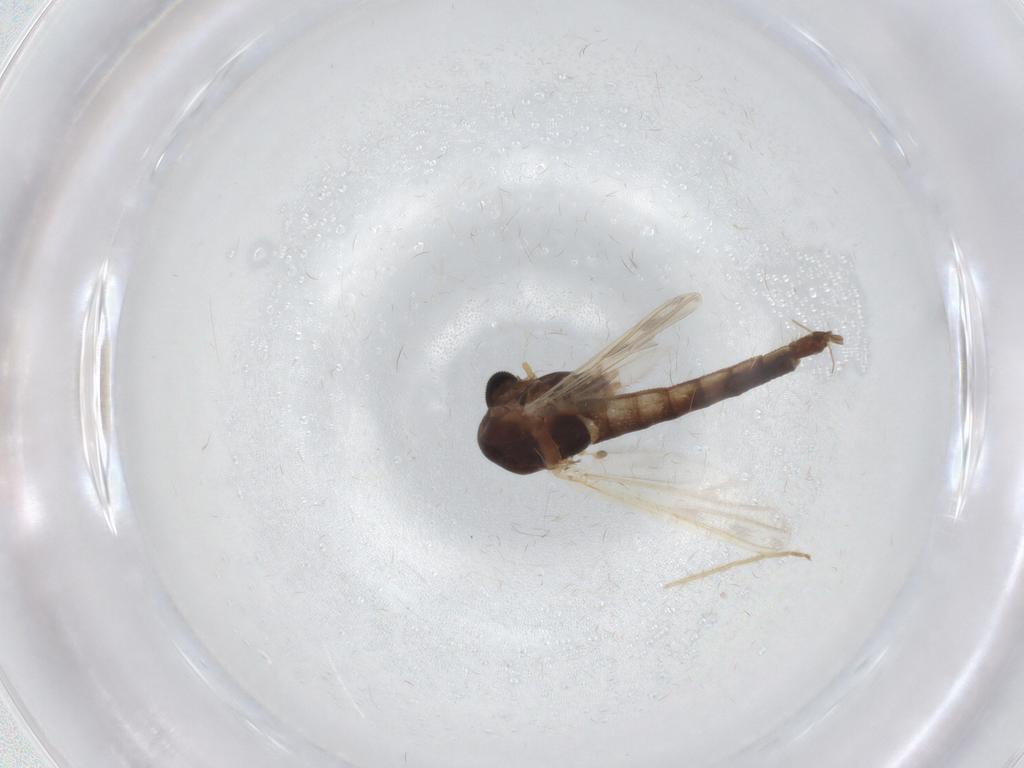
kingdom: Animalia
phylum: Arthropoda
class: Insecta
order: Diptera
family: Chironomidae
